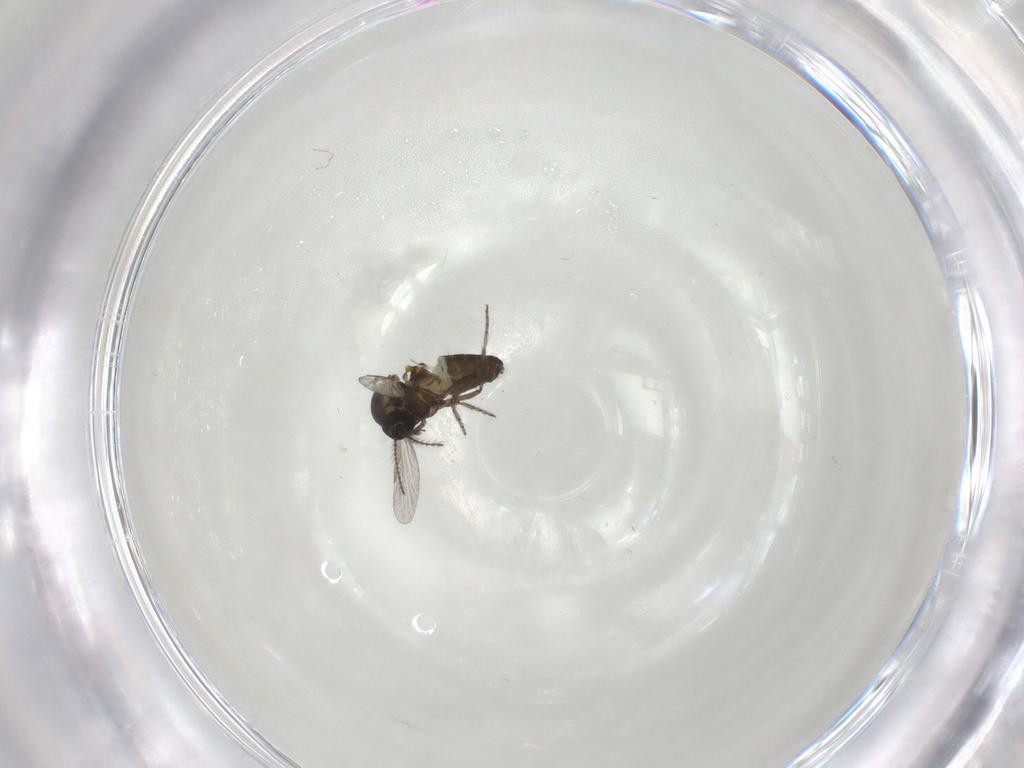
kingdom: Animalia
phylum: Arthropoda
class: Insecta
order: Diptera
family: Ceratopogonidae
